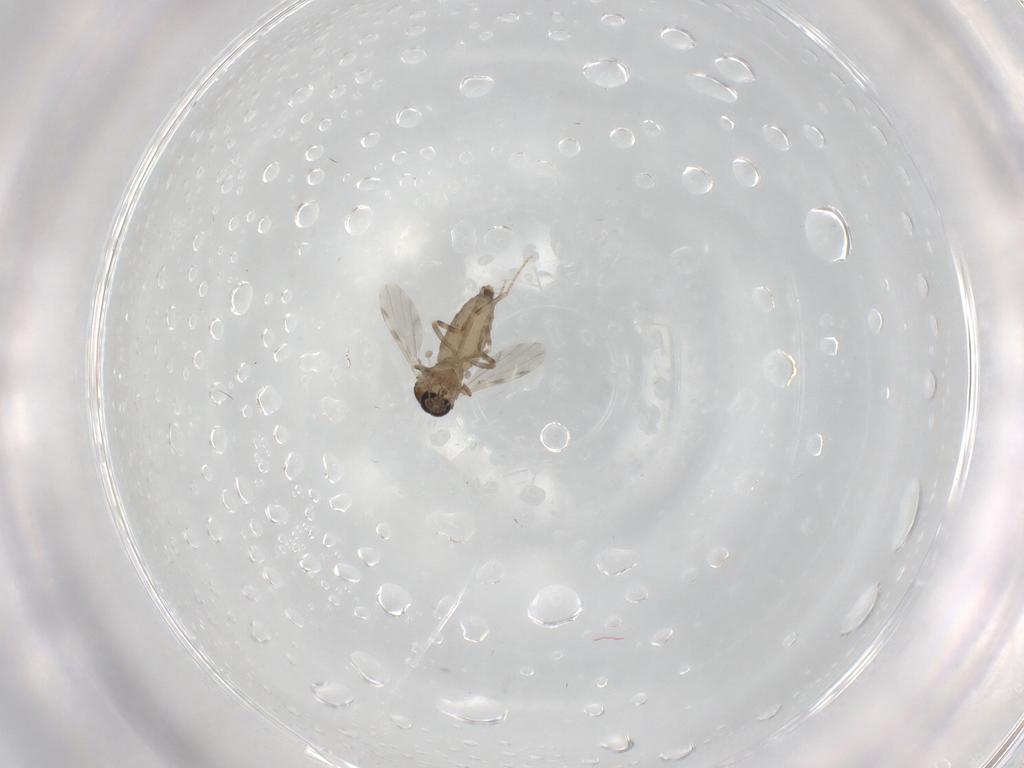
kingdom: Animalia
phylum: Arthropoda
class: Insecta
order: Diptera
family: Ceratopogonidae
